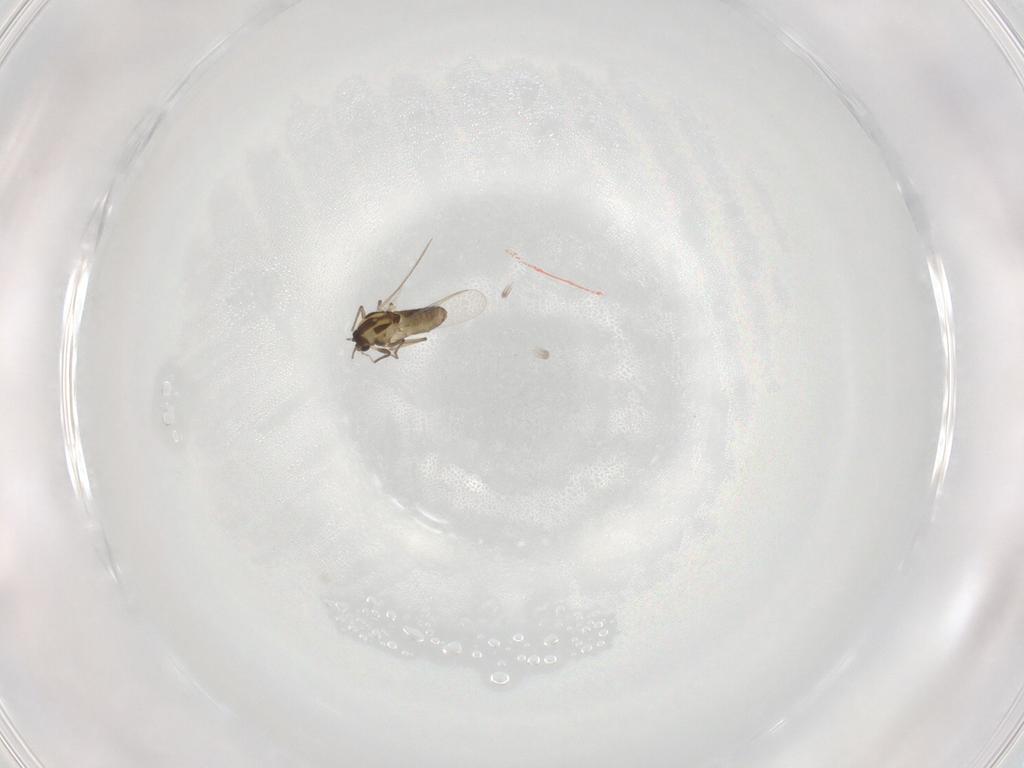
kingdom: Animalia
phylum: Arthropoda
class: Insecta
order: Diptera
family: Chironomidae
